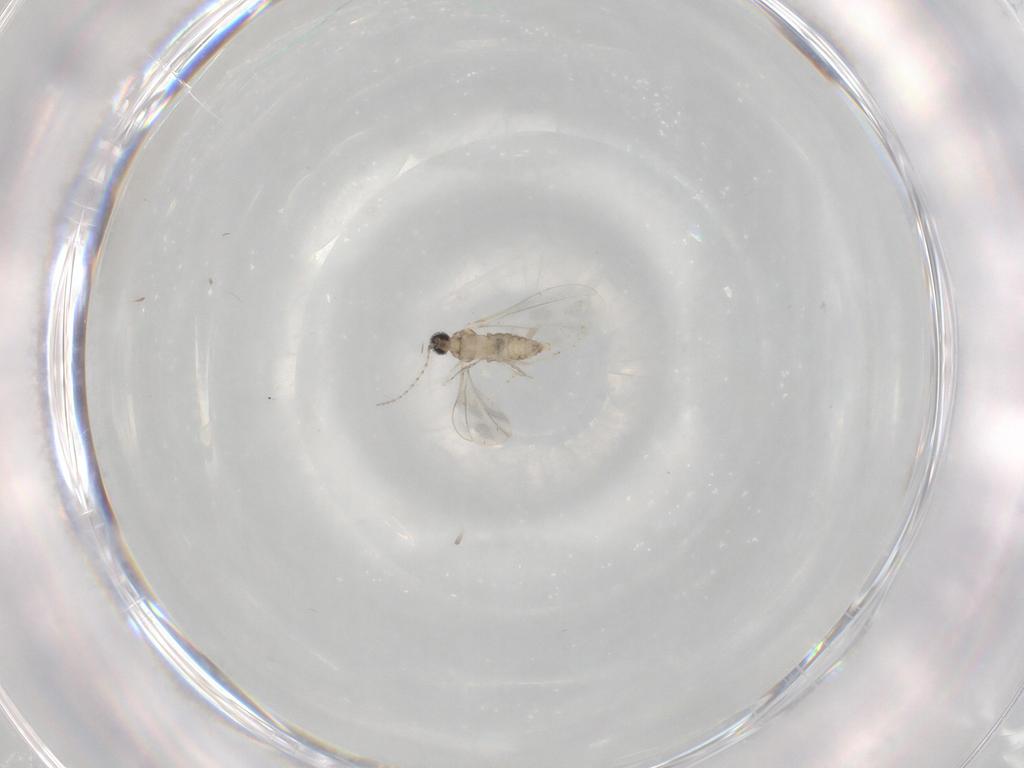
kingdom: Animalia
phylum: Arthropoda
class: Insecta
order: Diptera
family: Cecidomyiidae
